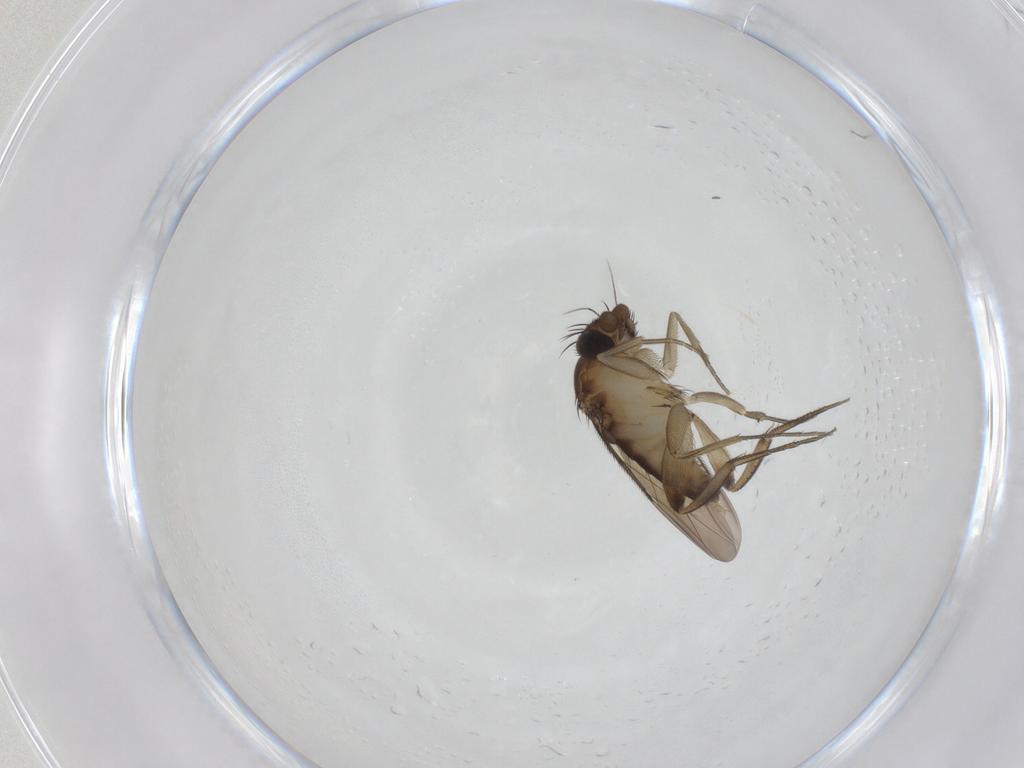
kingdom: Animalia
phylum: Arthropoda
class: Insecta
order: Diptera
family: Phoridae
